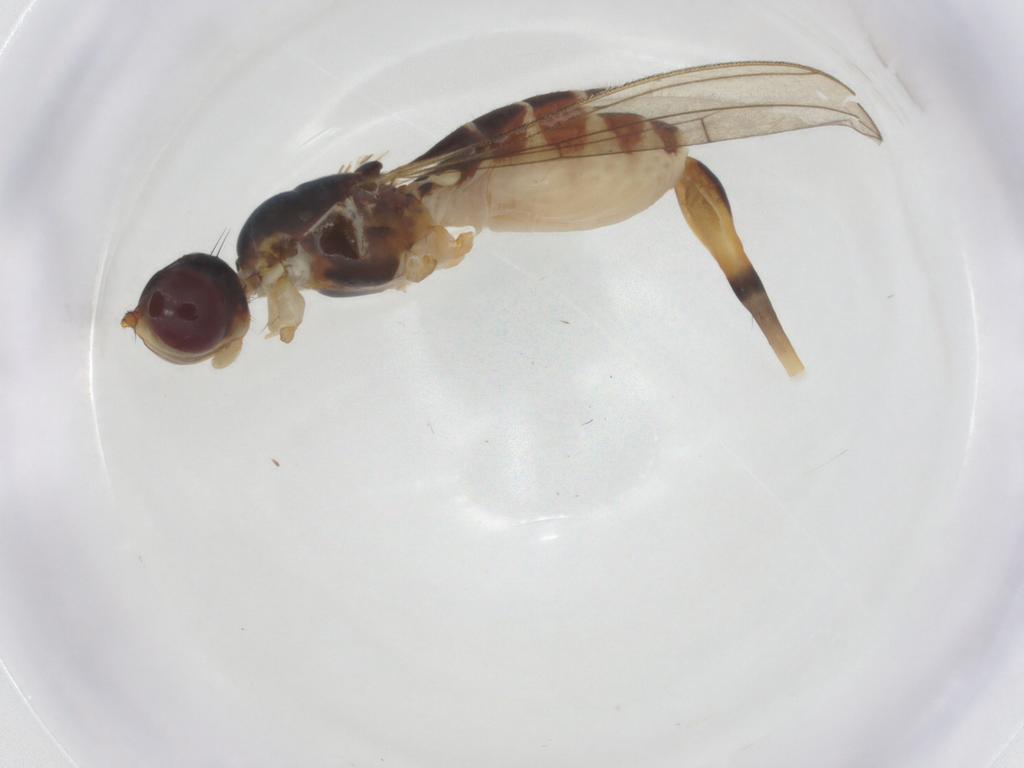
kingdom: Animalia
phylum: Arthropoda
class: Insecta
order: Diptera
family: Micropezidae
